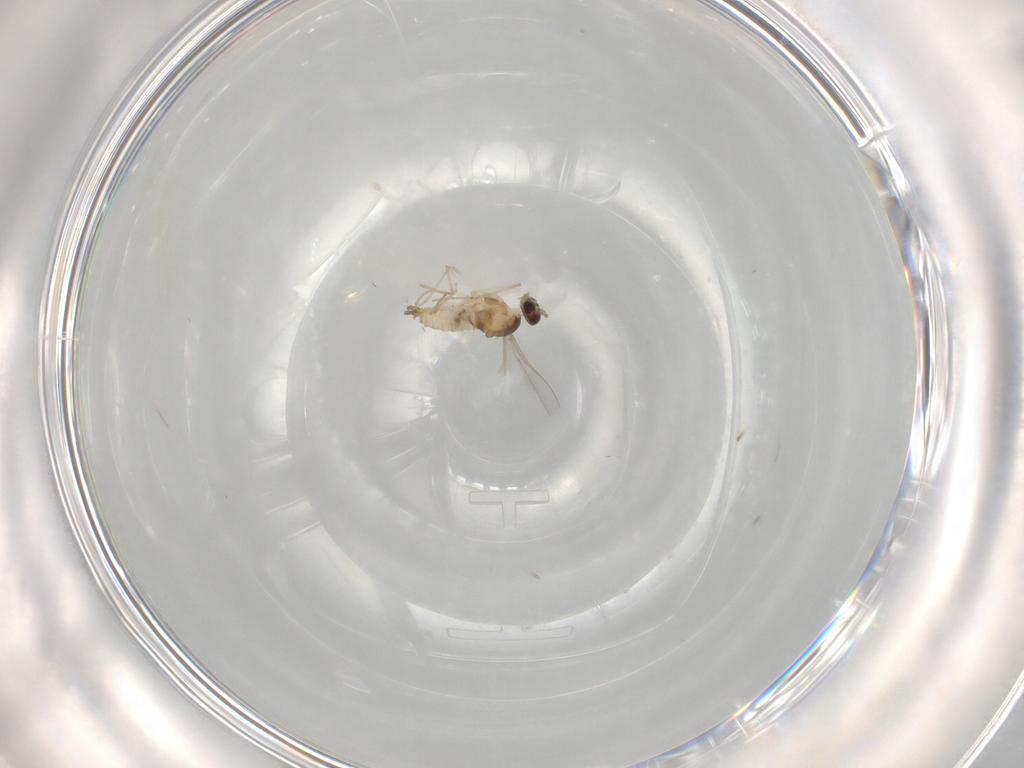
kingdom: Animalia
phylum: Arthropoda
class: Insecta
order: Diptera
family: Cecidomyiidae
